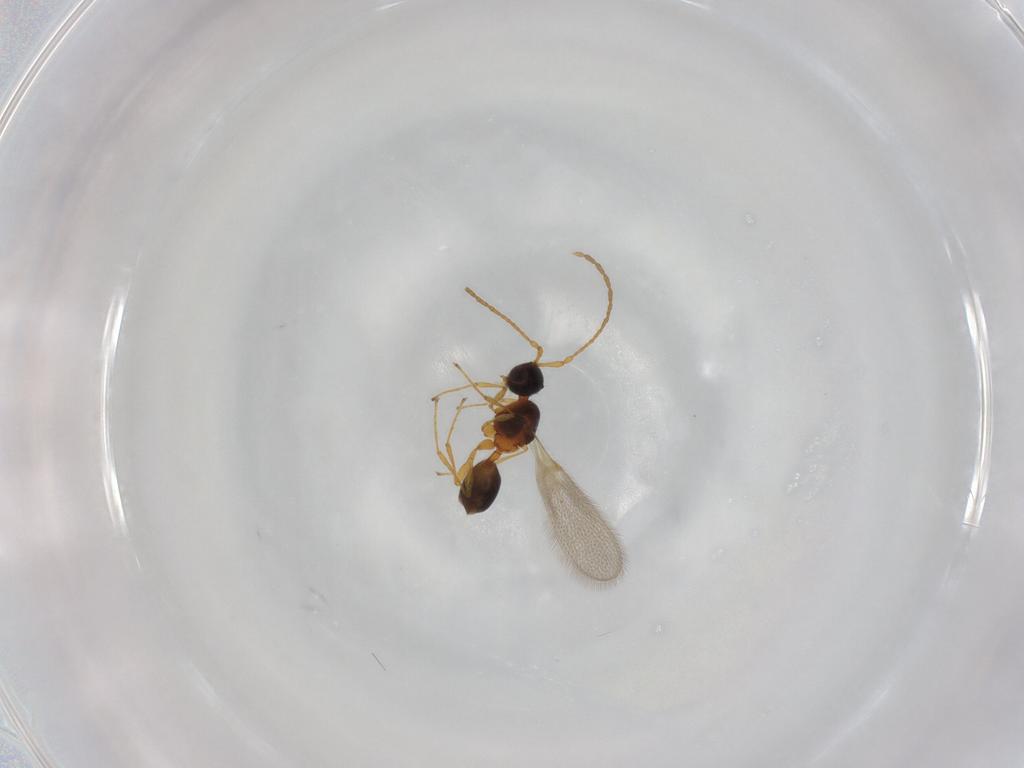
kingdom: Animalia
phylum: Arthropoda
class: Insecta
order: Hymenoptera
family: Diapriidae
